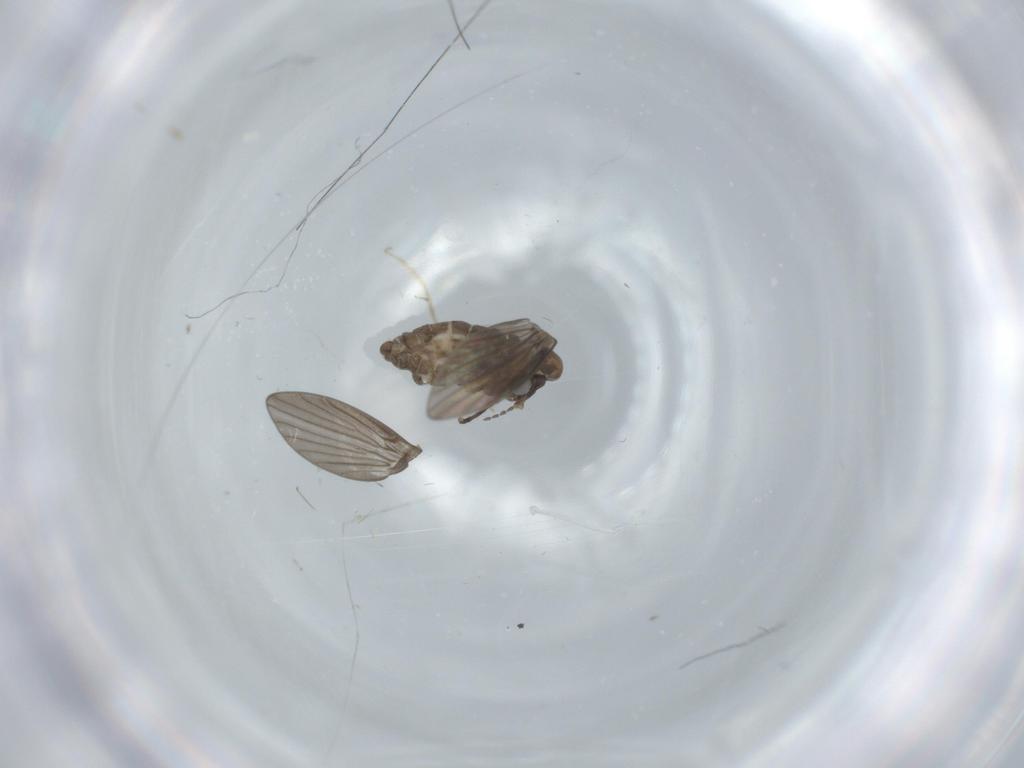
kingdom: Animalia
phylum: Arthropoda
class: Insecta
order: Diptera
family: Psychodidae
